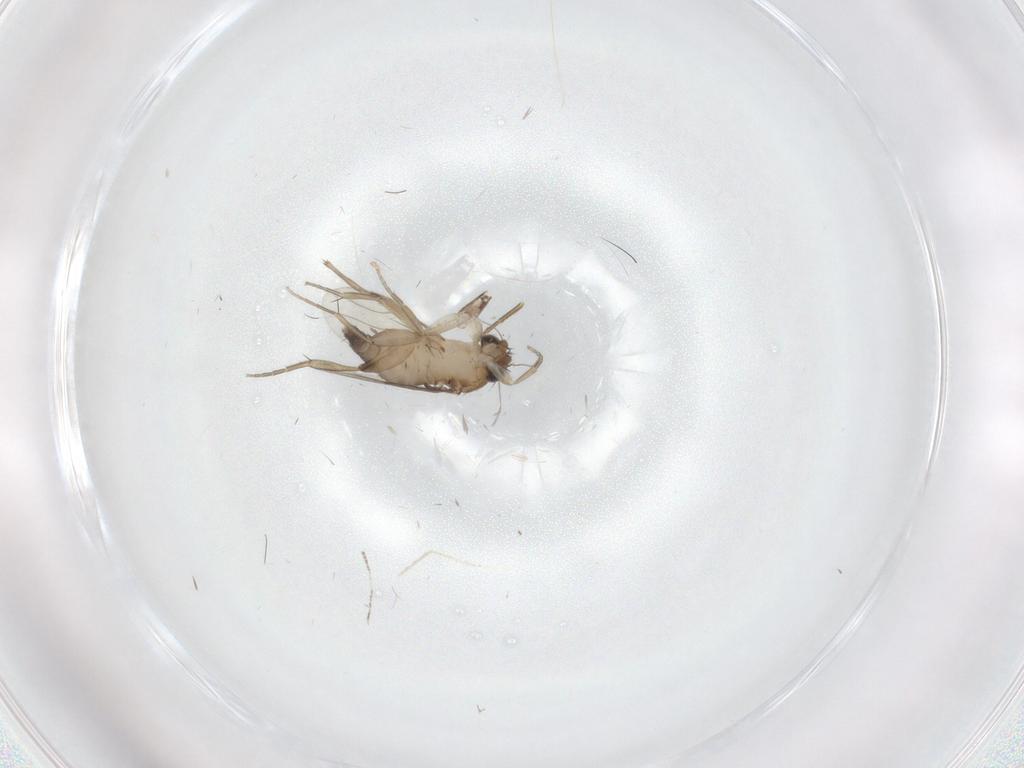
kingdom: Animalia
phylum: Arthropoda
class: Insecta
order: Diptera
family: Phoridae
